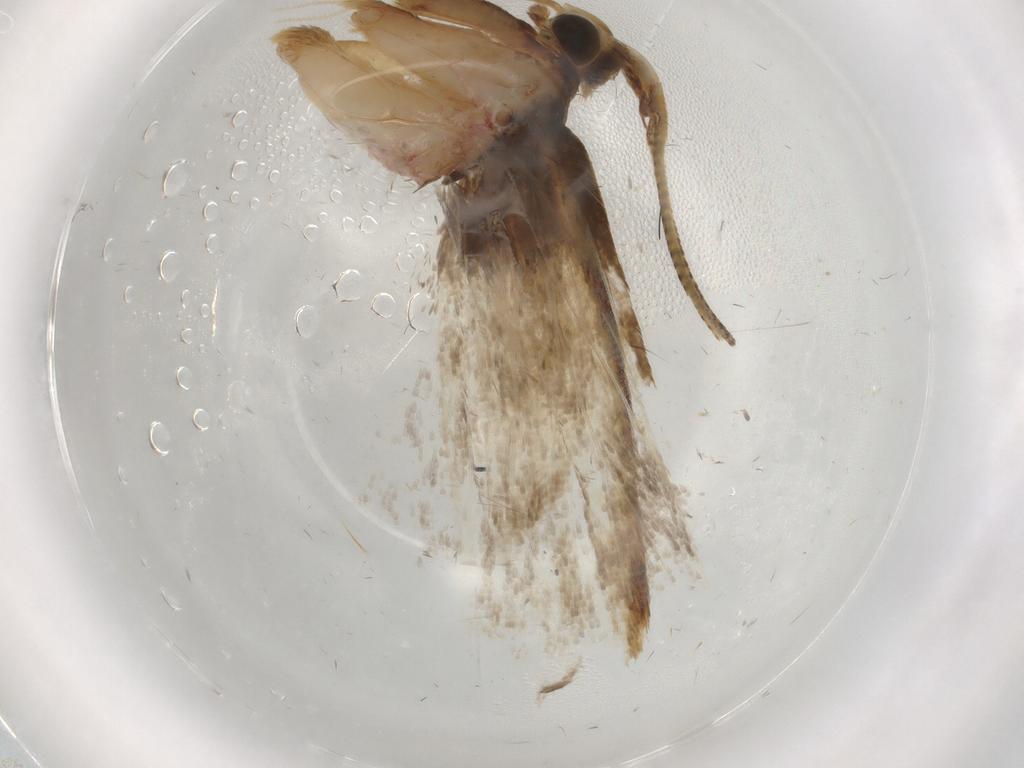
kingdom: Animalia
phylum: Arthropoda
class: Insecta
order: Lepidoptera
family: Autostichidae
